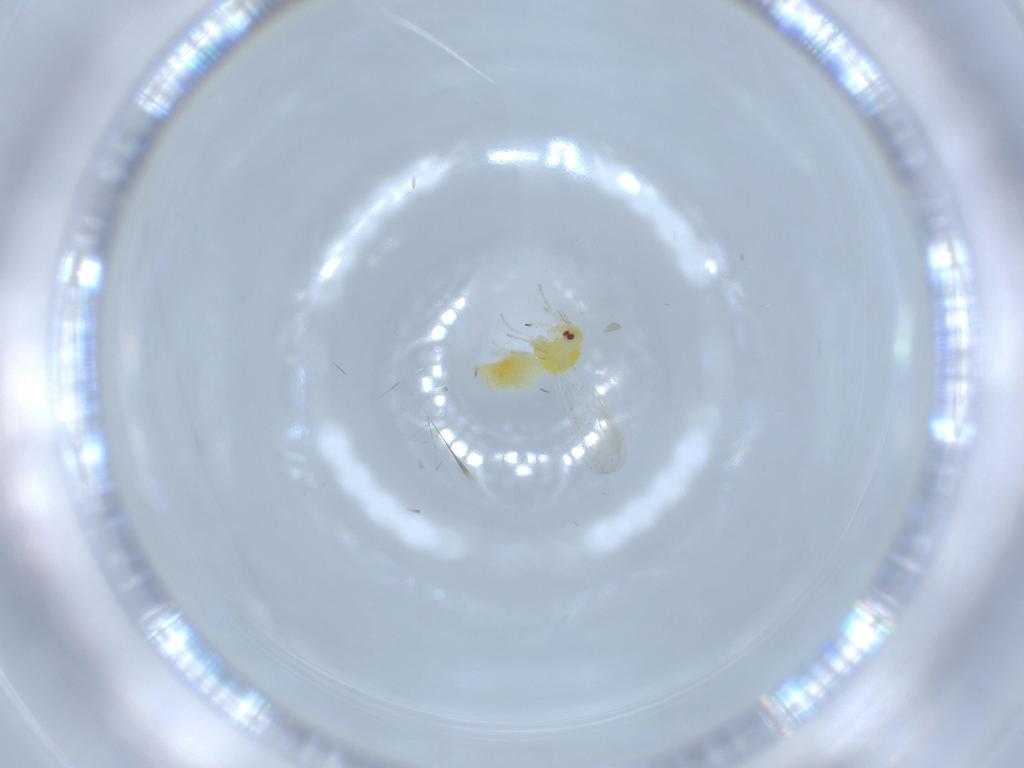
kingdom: Animalia
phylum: Arthropoda
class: Insecta
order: Hemiptera
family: Aleyrodidae
